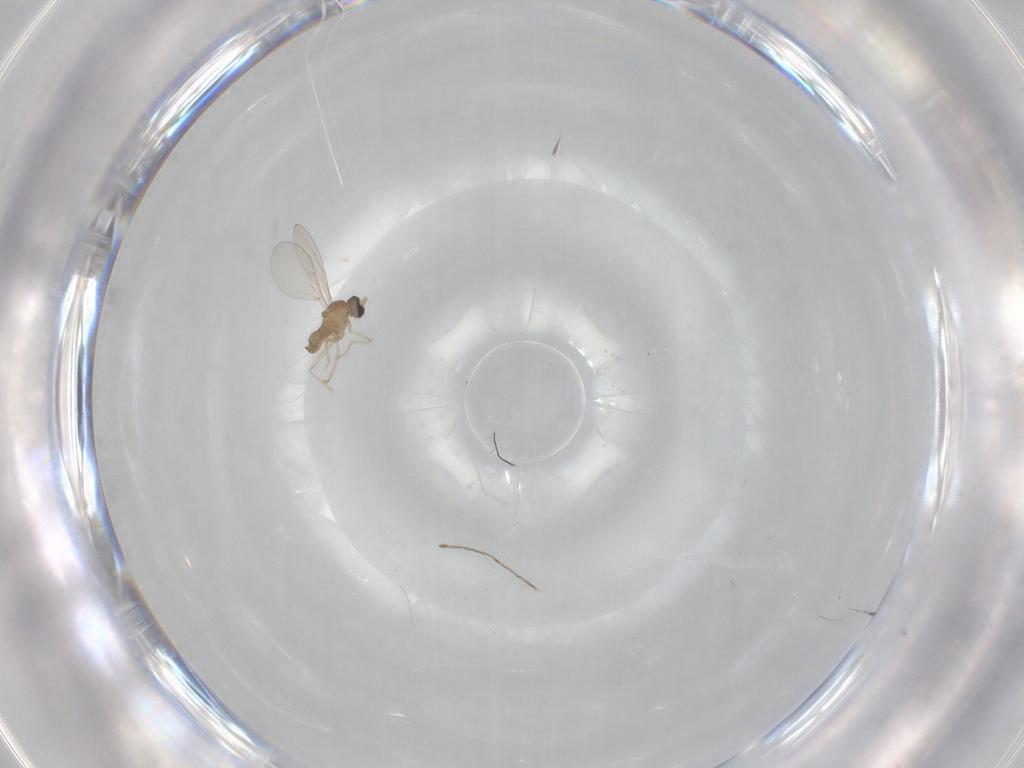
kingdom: Animalia
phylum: Arthropoda
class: Insecta
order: Diptera
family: Cecidomyiidae
